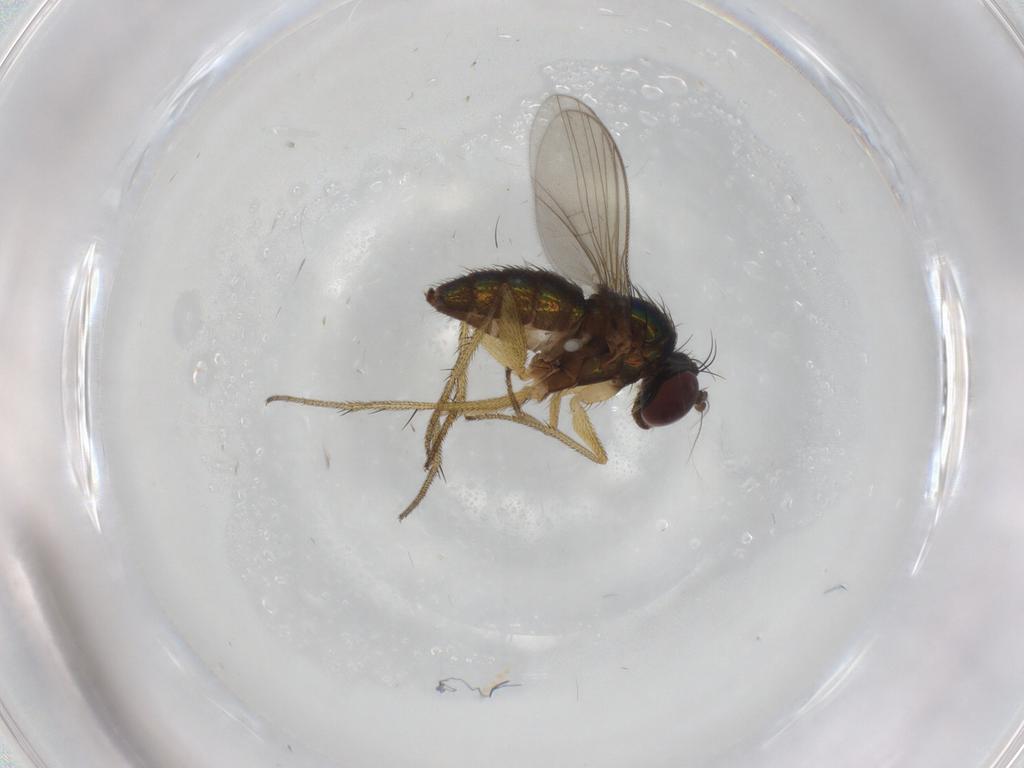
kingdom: Animalia
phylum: Arthropoda
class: Insecta
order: Diptera
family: Dolichopodidae
